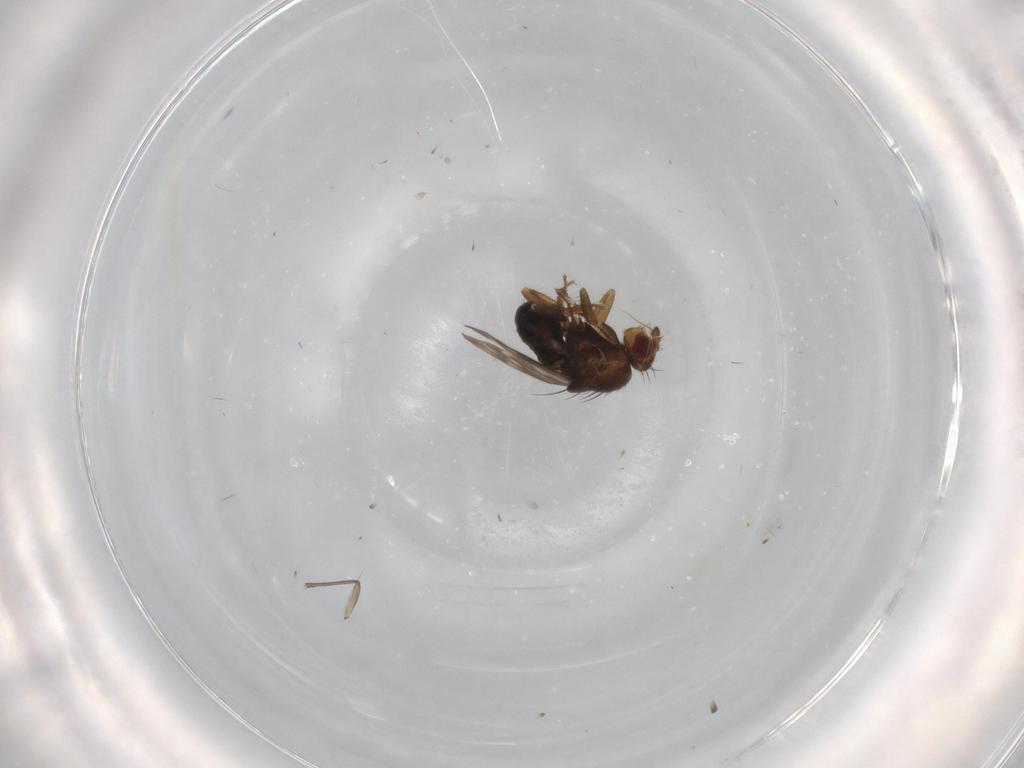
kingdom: Animalia
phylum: Arthropoda
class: Insecta
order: Diptera
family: Sphaeroceridae
